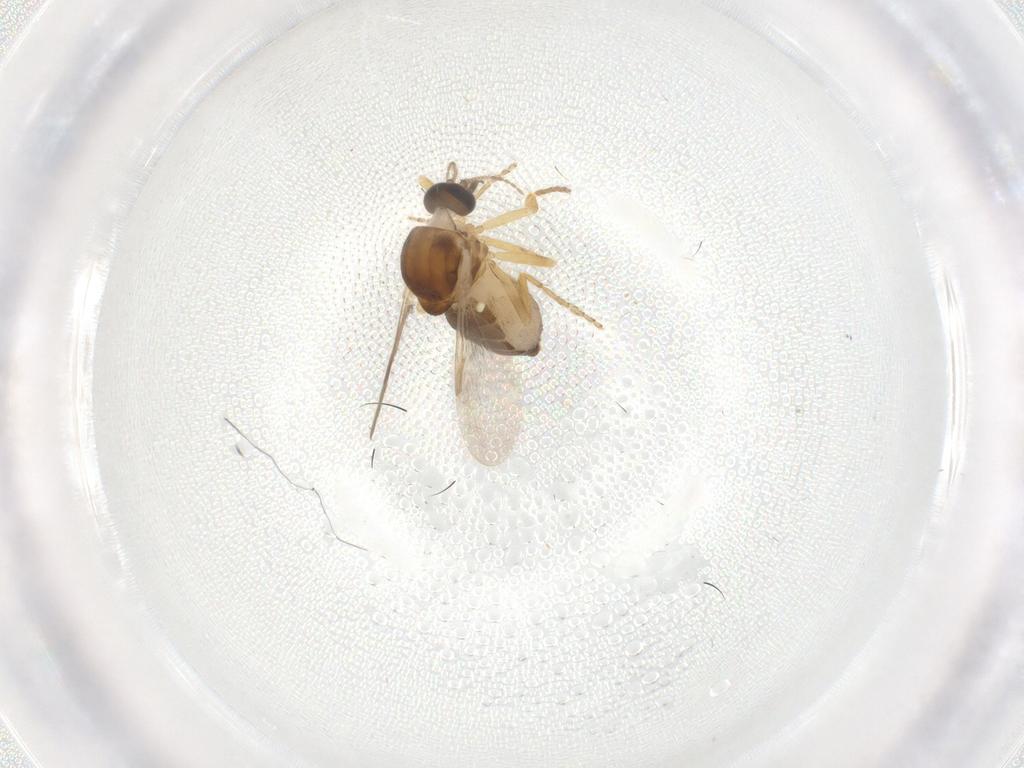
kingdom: Animalia
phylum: Arthropoda
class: Insecta
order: Diptera
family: Ceratopogonidae
